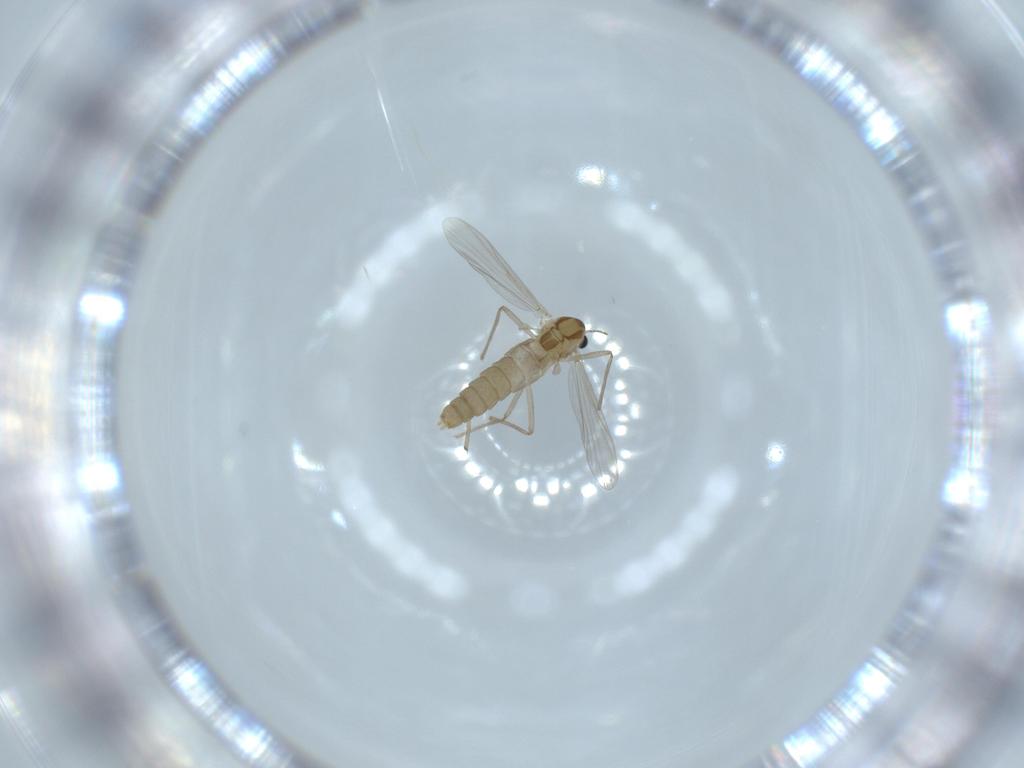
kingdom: Animalia
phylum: Arthropoda
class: Insecta
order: Diptera
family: Chironomidae
